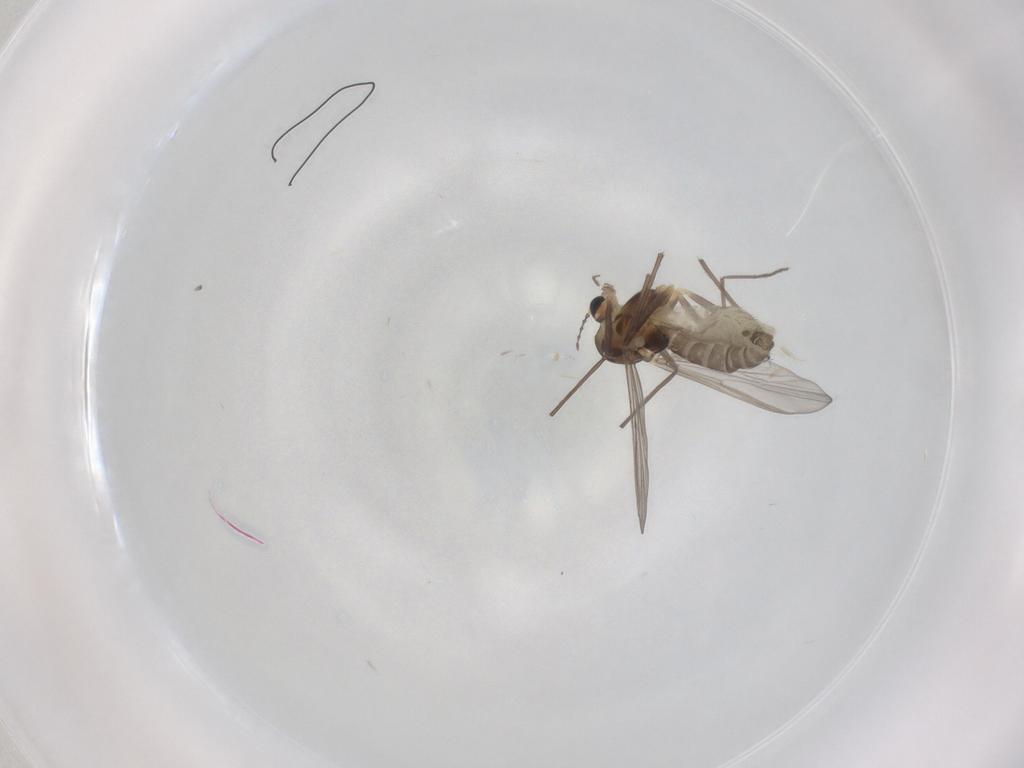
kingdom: Animalia
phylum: Arthropoda
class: Insecta
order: Diptera
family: Chironomidae
